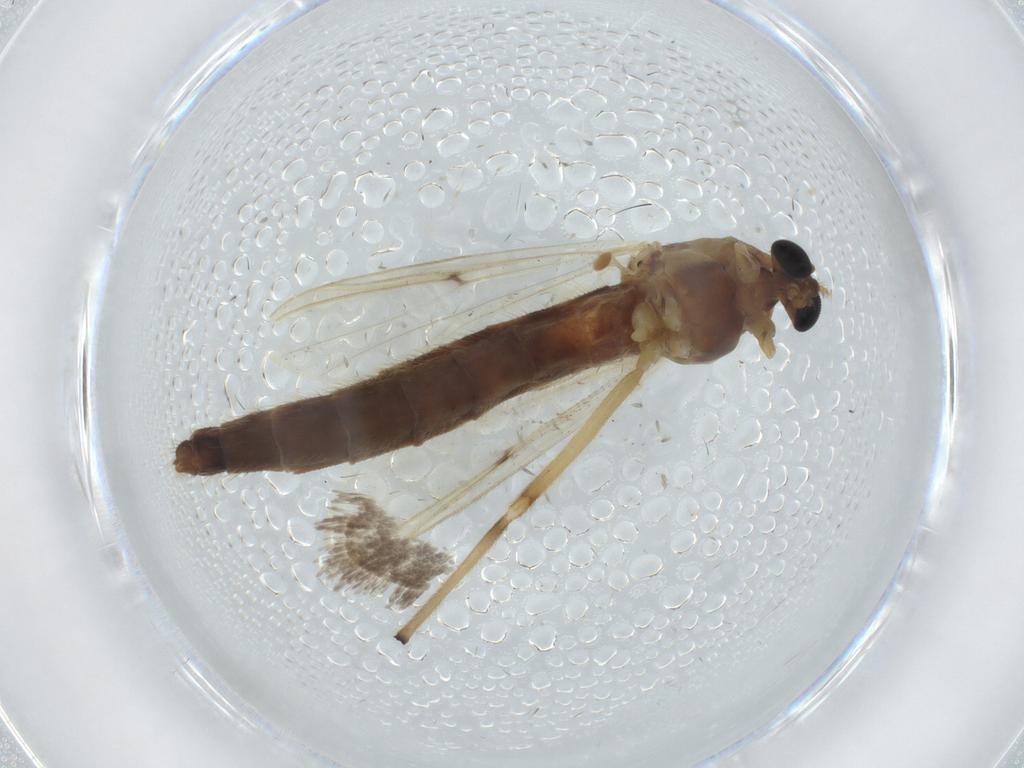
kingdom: Animalia
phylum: Arthropoda
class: Insecta
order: Diptera
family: Chironomidae
